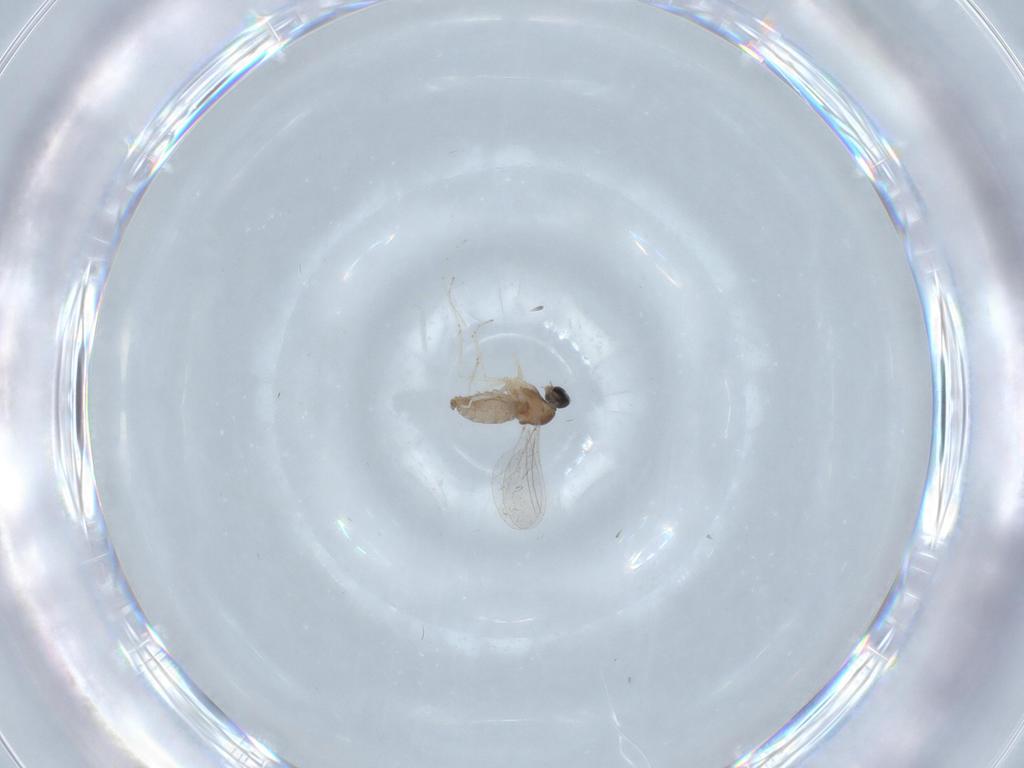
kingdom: Animalia
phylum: Arthropoda
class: Insecta
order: Diptera
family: Cecidomyiidae
